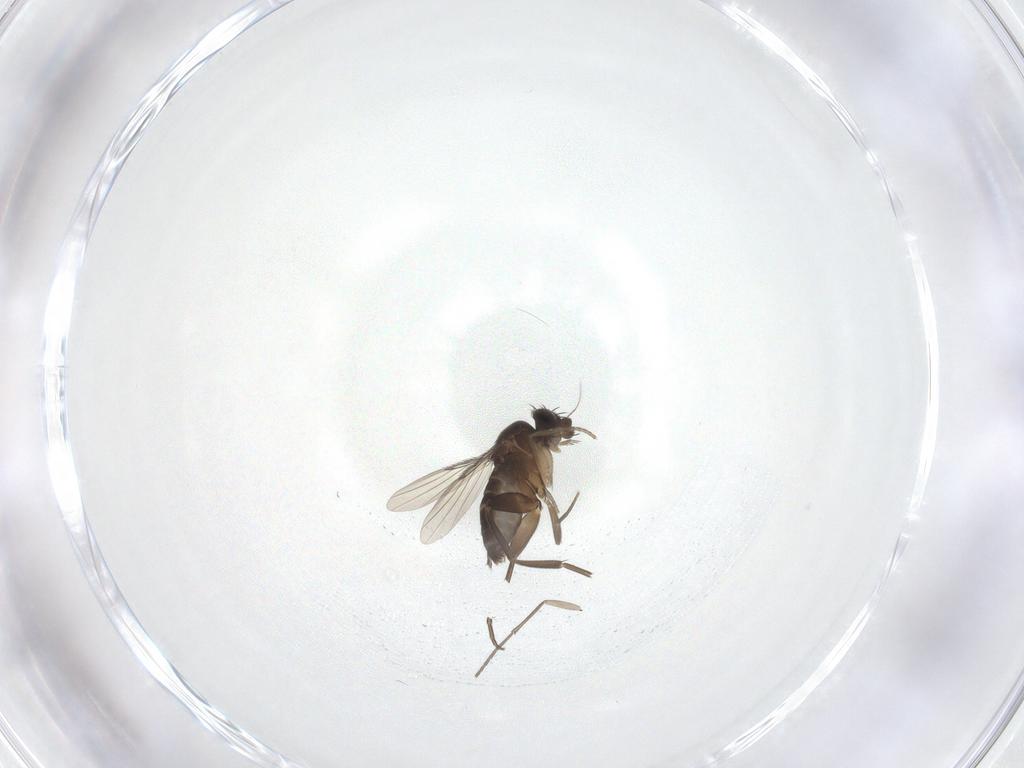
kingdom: Animalia
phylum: Arthropoda
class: Insecta
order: Diptera
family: Sciaridae
